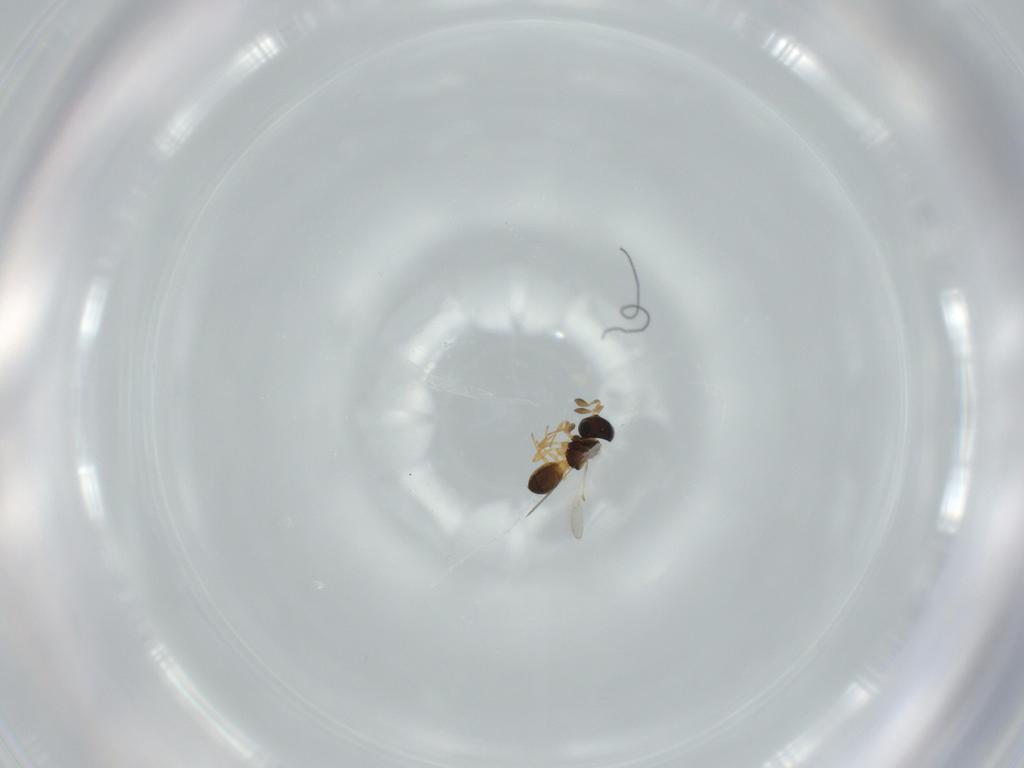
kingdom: Animalia
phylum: Arthropoda
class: Insecta
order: Hymenoptera
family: Scelionidae
